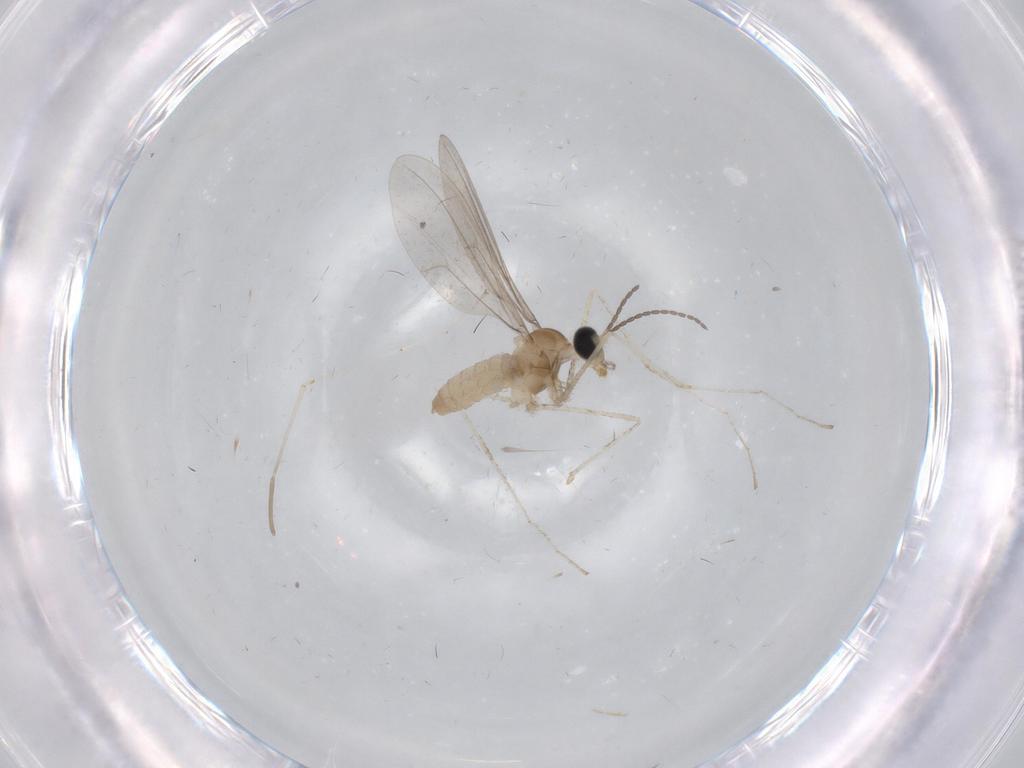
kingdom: Animalia
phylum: Arthropoda
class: Insecta
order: Diptera
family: Cecidomyiidae
